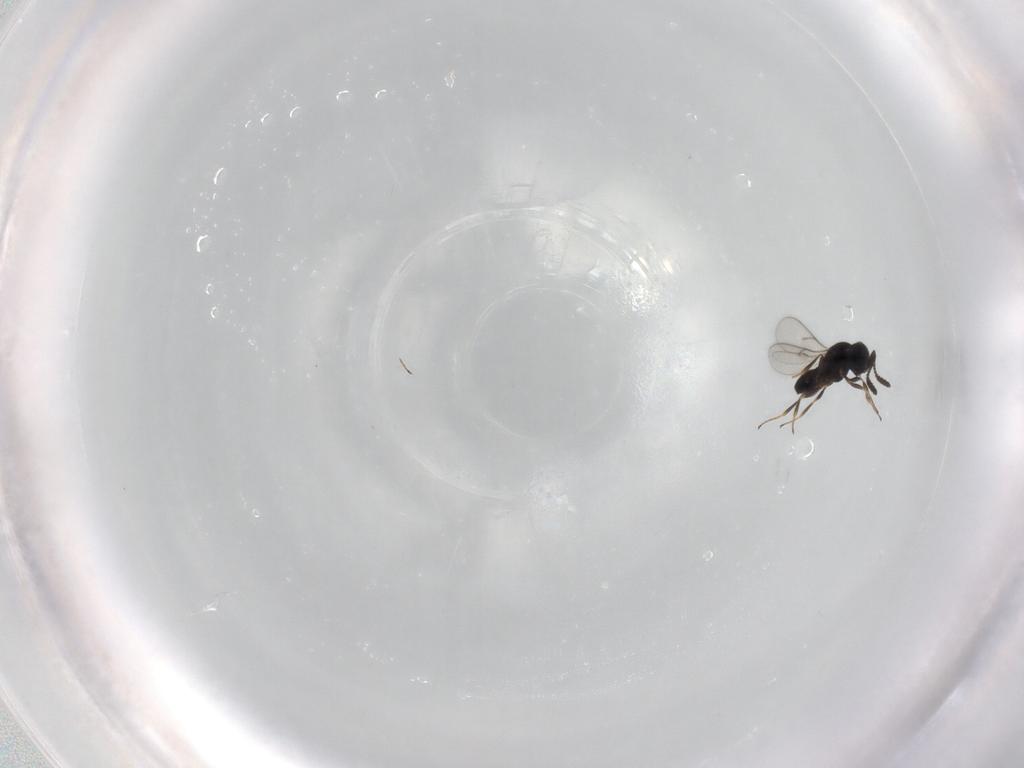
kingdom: Animalia
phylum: Arthropoda
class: Insecta
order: Hymenoptera
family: Scelionidae
